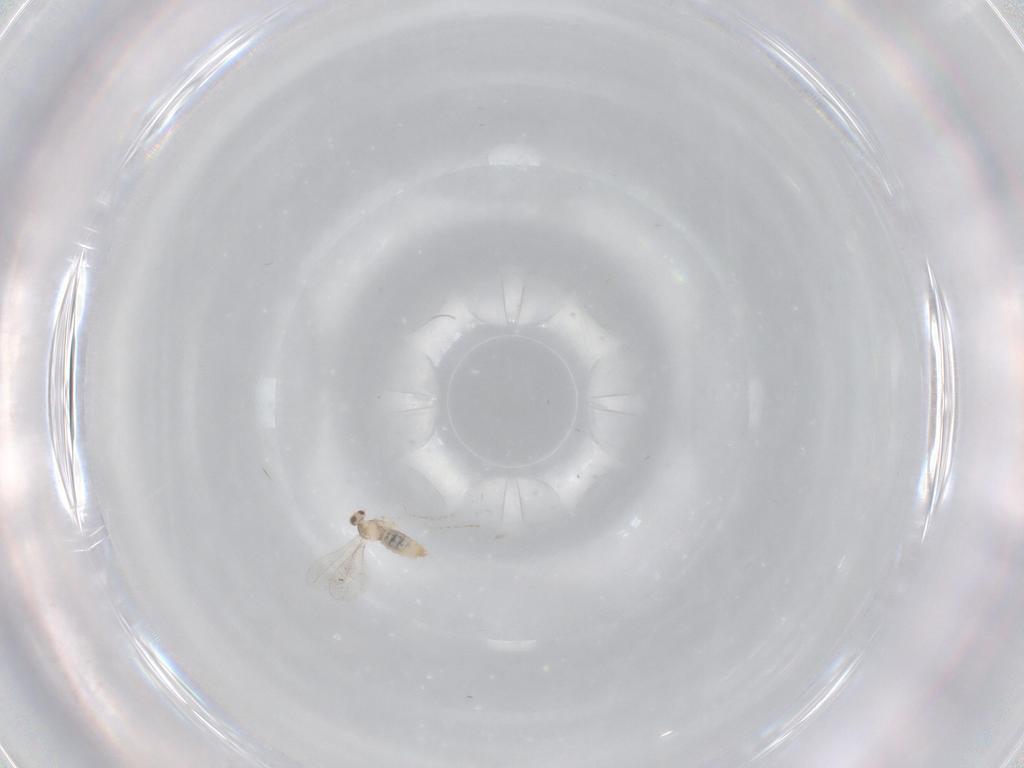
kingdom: Animalia
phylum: Arthropoda
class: Insecta
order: Diptera
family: Cecidomyiidae
